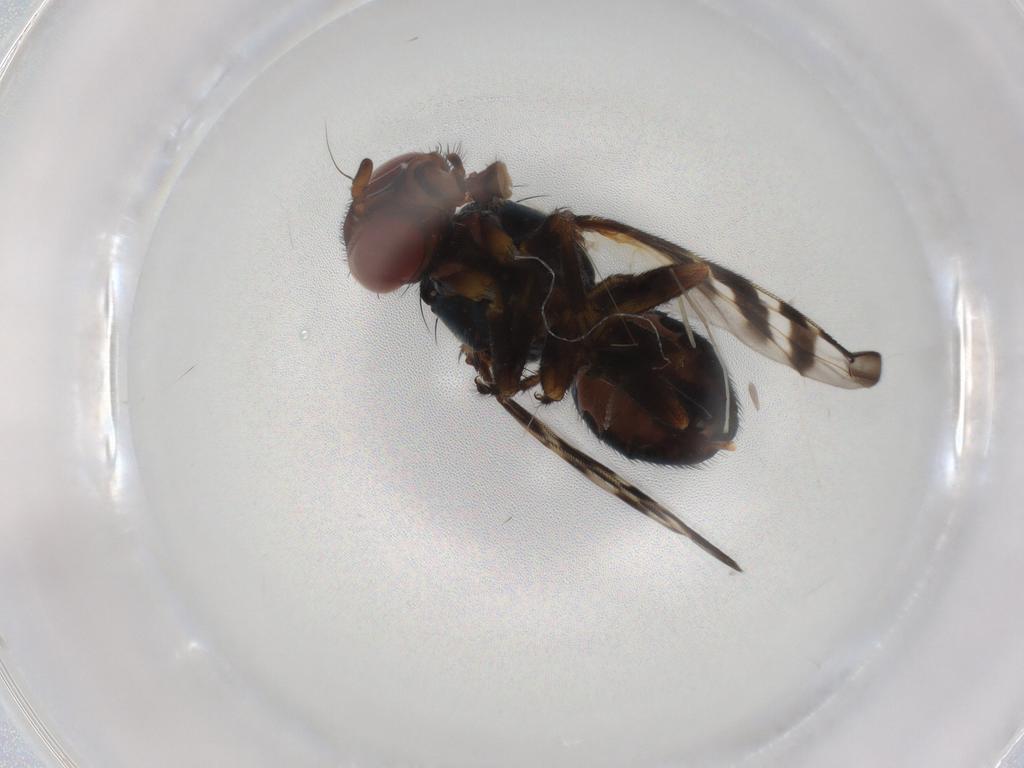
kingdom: Animalia
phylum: Arthropoda
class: Insecta
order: Diptera
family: Sciaridae
